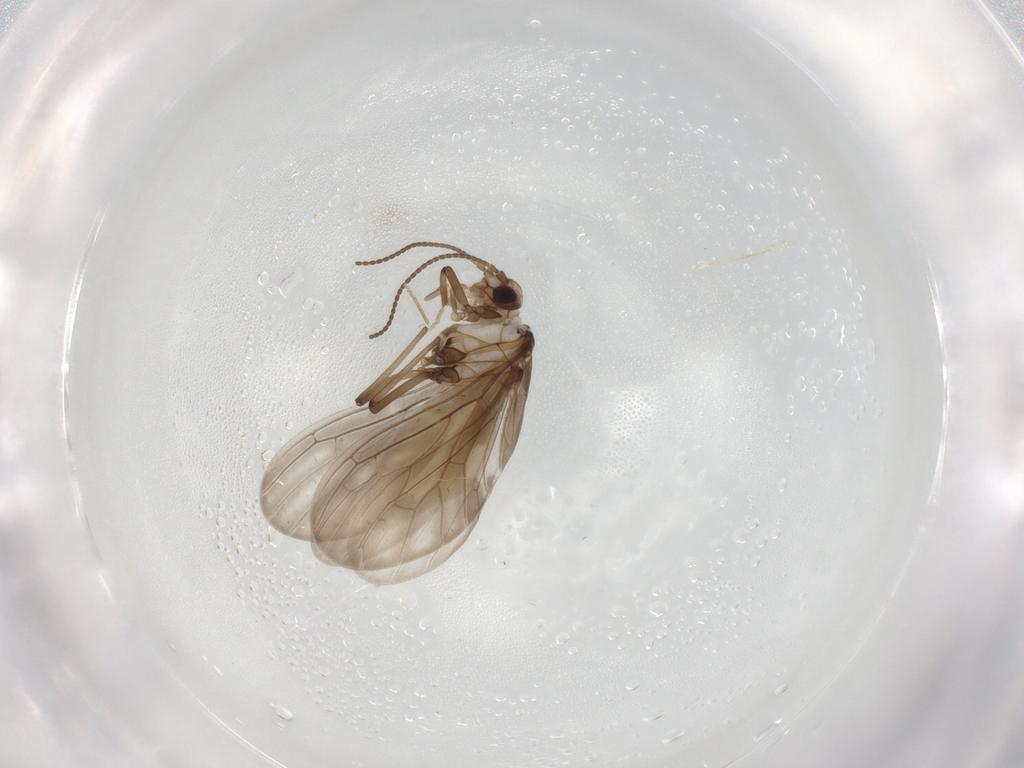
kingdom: Animalia
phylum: Arthropoda
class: Insecta
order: Neuroptera
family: Coniopterygidae
